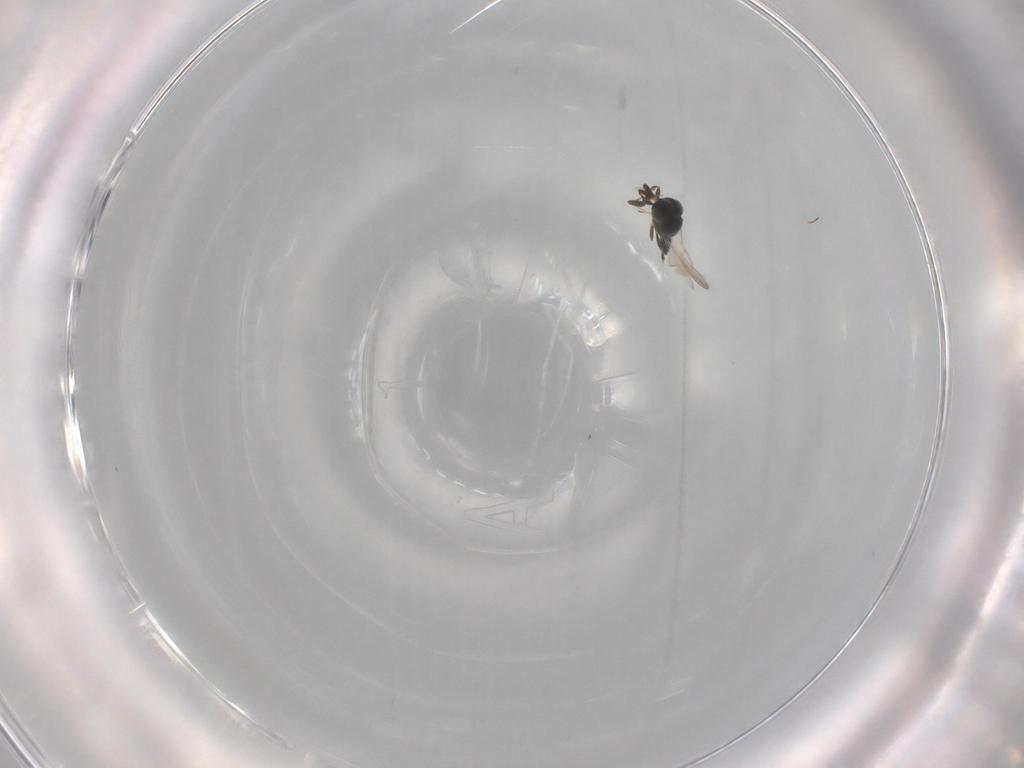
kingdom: Animalia
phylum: Arthropoda
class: Insecta
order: Hymenoptera
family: Scelionidae
